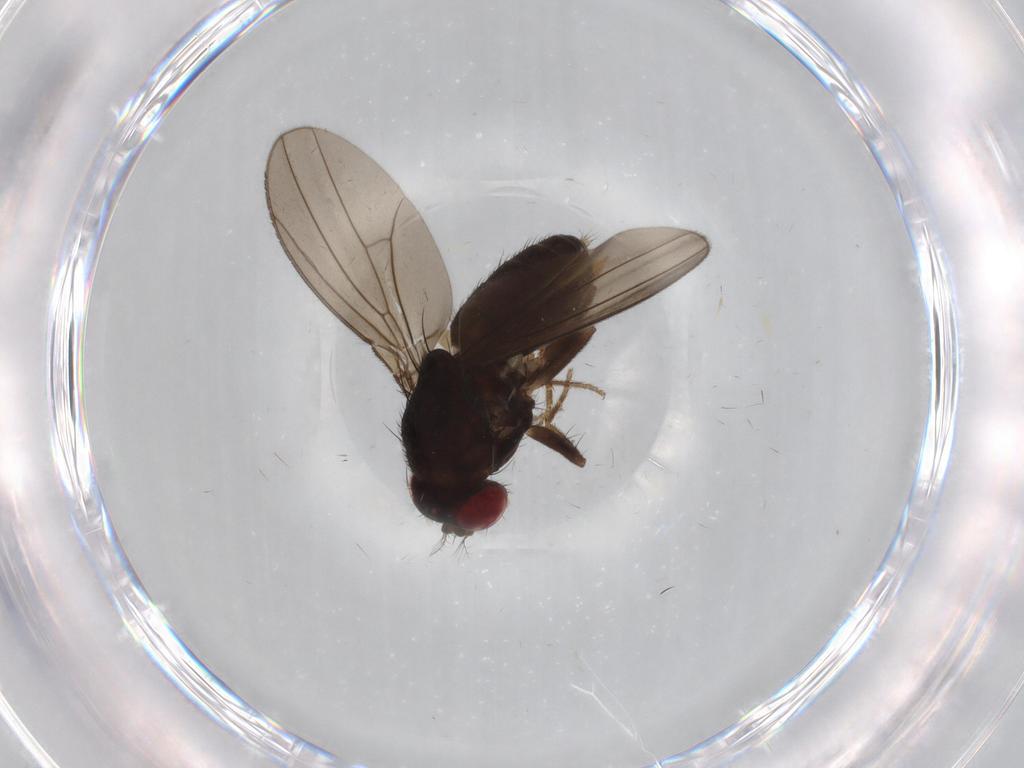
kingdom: Animalia
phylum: Arthropoda
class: Insecta
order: Diptera
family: Drosophilidae
